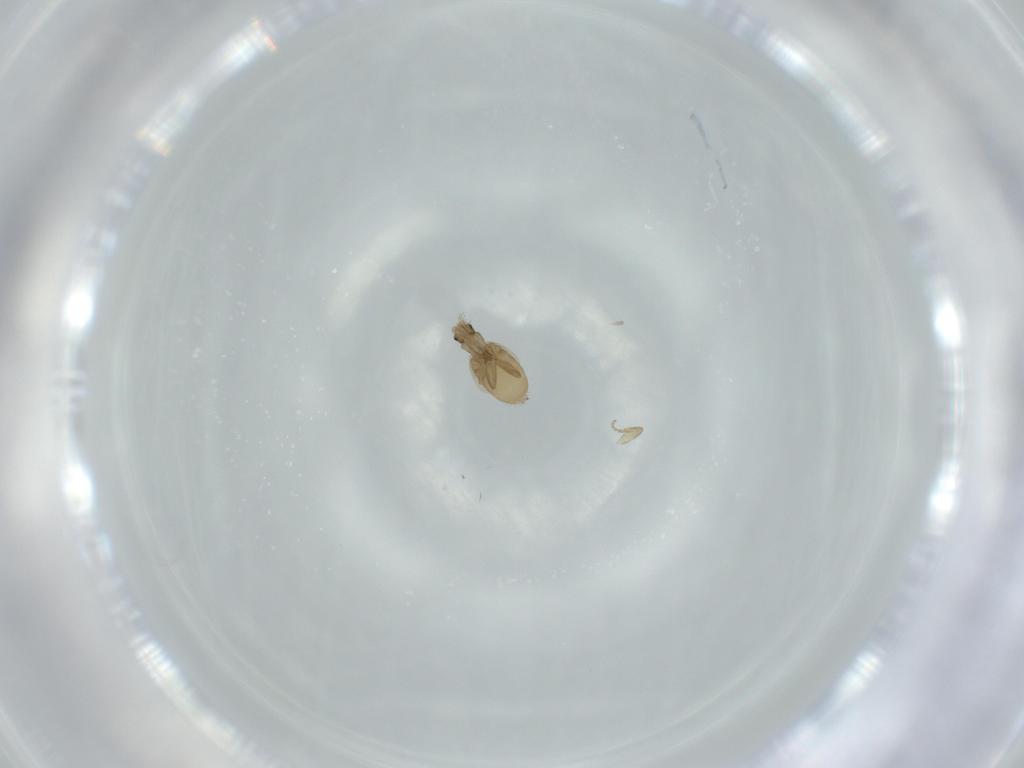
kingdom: Animalia
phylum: Arthropoda
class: Insecta
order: Diptera
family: Phoridae
